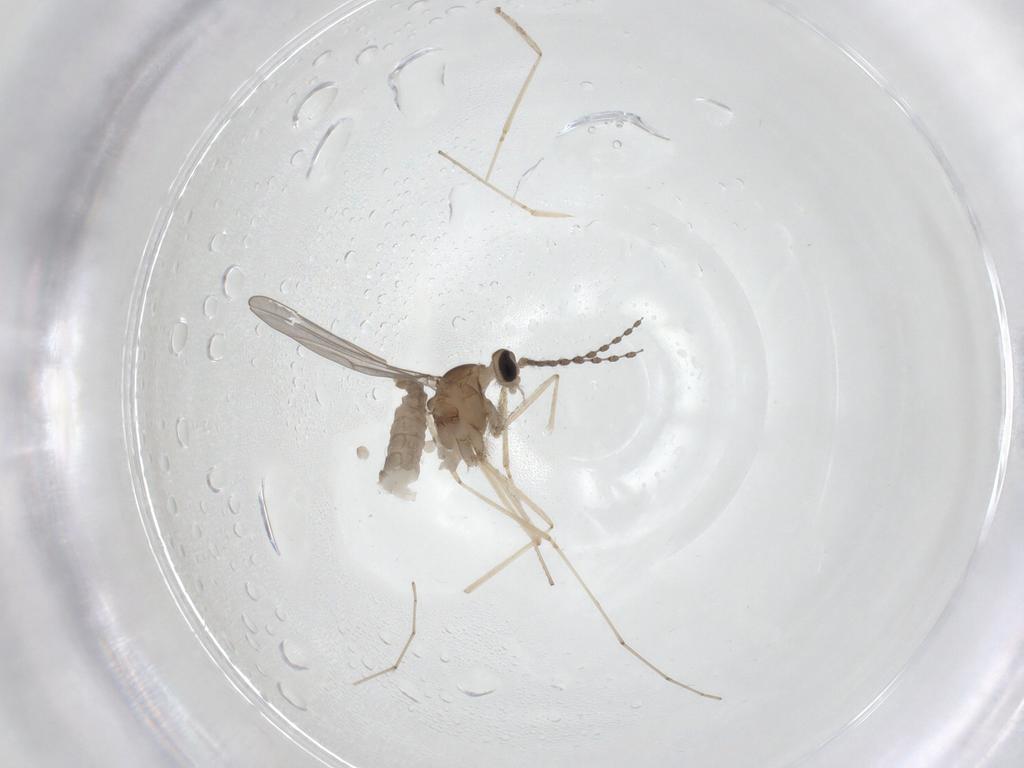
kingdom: Animalia
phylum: Arthropoda
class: Insecta
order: Diptera
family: Cecidomyiidae
